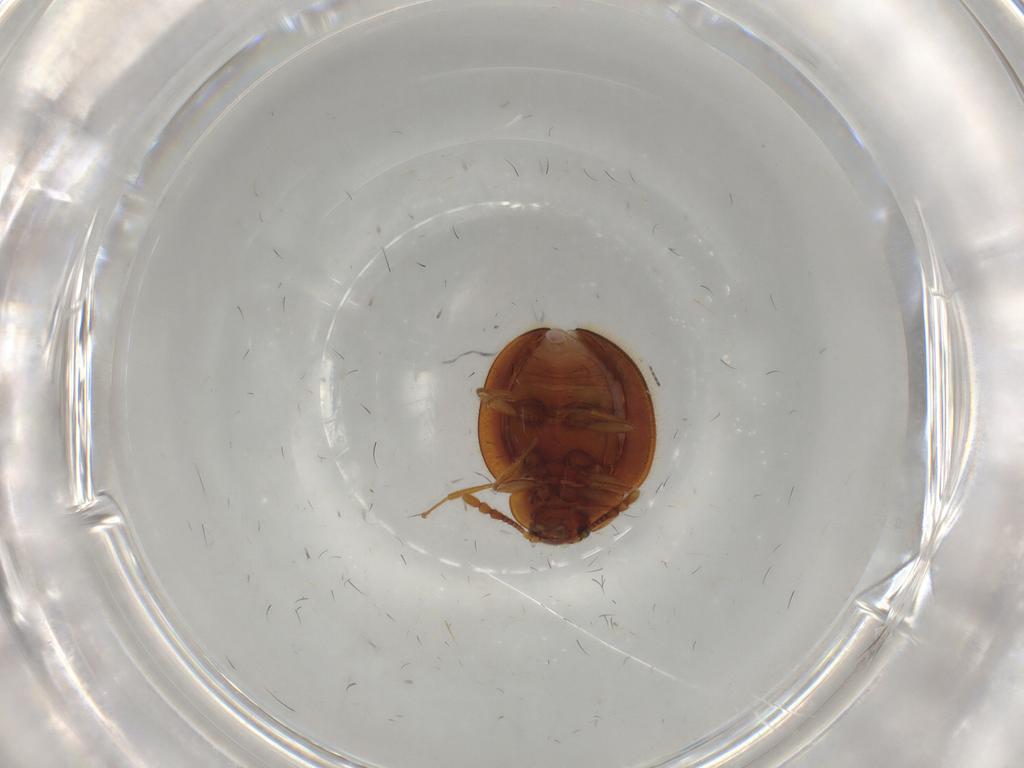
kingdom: Animalia
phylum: Arthropoda
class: Insecta
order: Coleoptera
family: Anamorphidae
